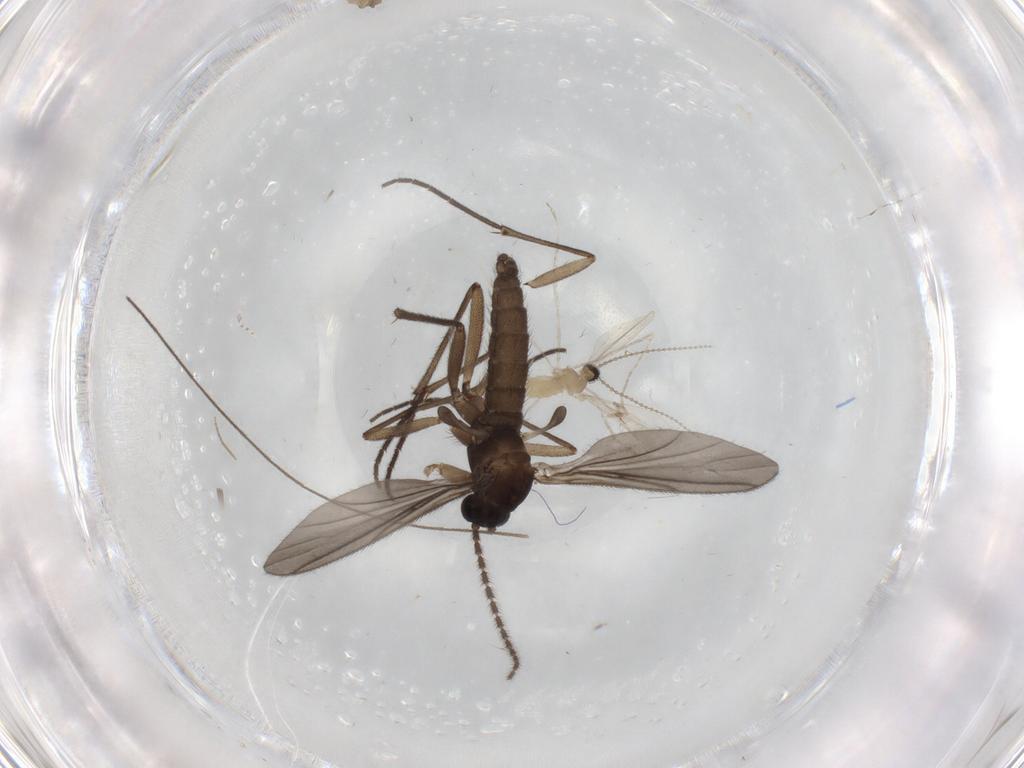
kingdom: Animalia
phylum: Arthropoda
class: Insecta
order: Diptera
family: Sciaridae
